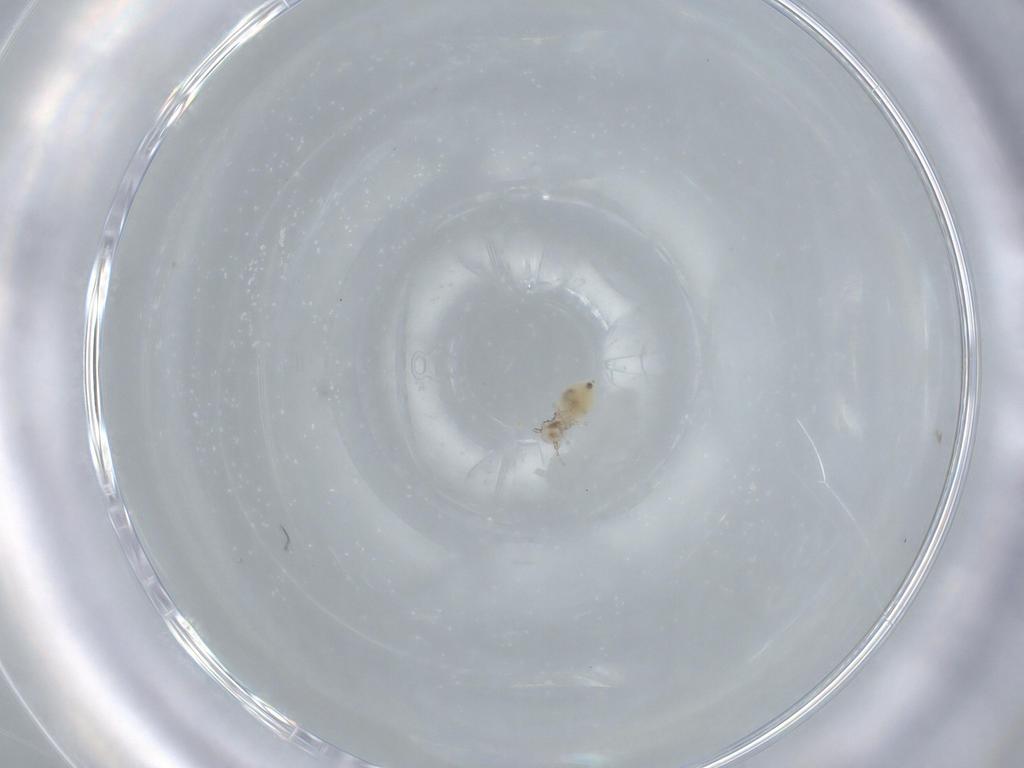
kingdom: Animalia
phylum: Arthropoda
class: Insecta
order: Psocodea
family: Pseudocaeciliidae
